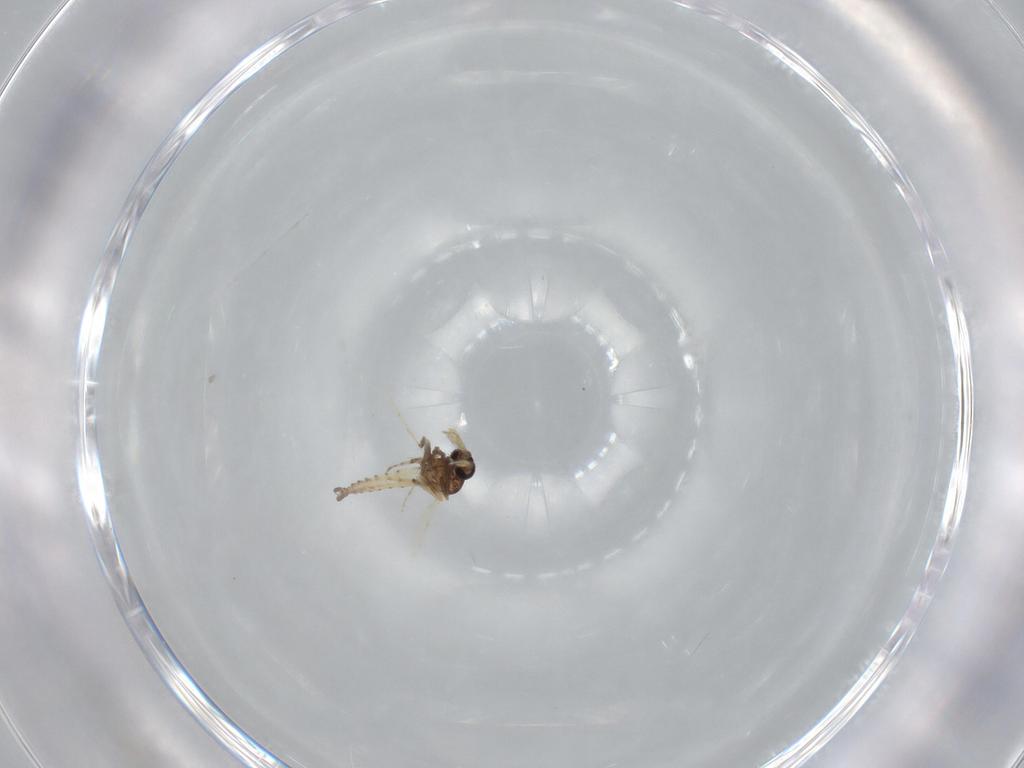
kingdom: Animalia
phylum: Arthropoda
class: Insecta
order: Diptera
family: Ceratopogonidae
